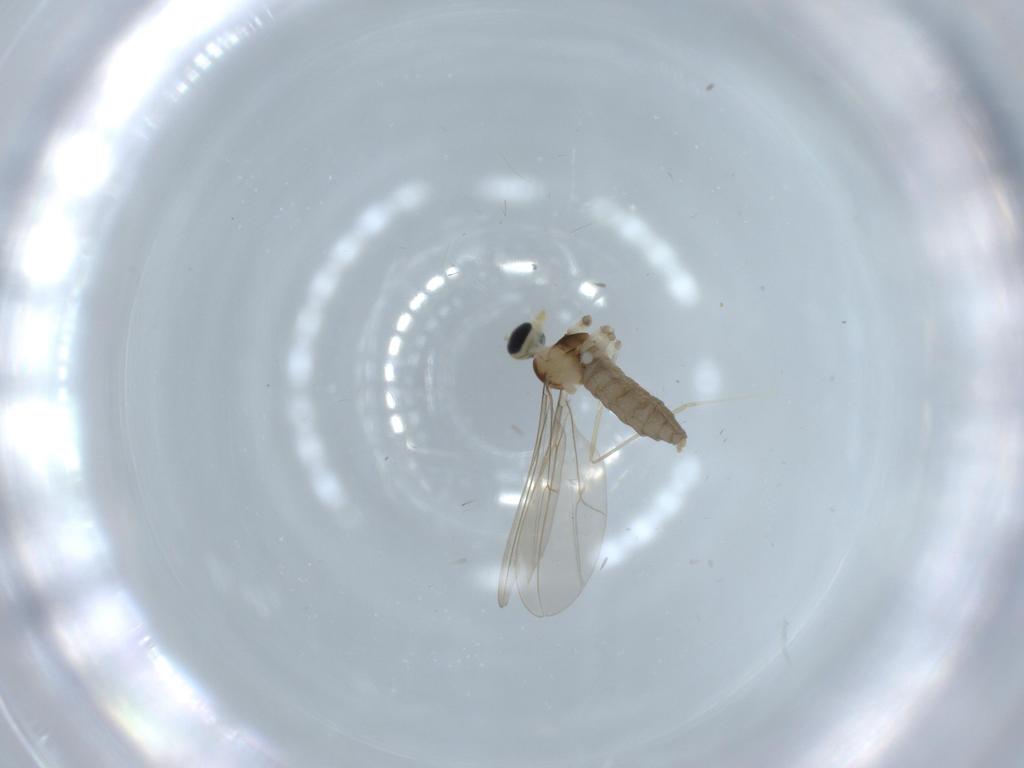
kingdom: Animalia
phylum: Arthropoda
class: Insecta
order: Diptera
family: Cecidomyiidae
